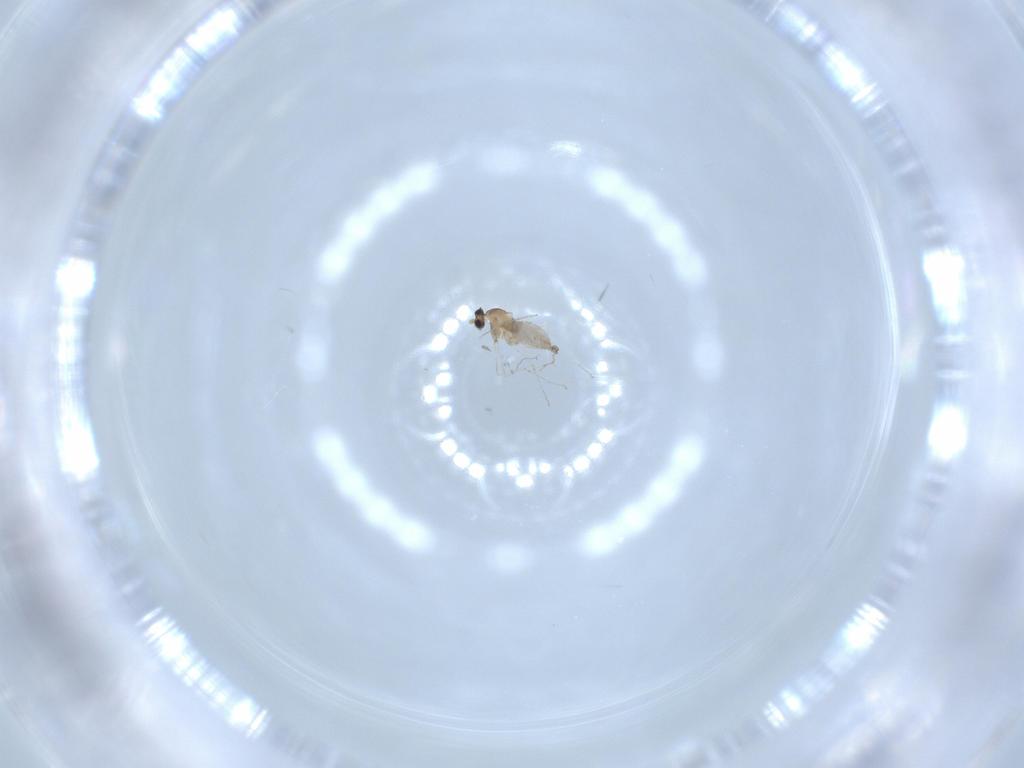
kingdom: Animalia
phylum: Arthropoda
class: Insecta
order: Diptera
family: Cecidomyiidae
